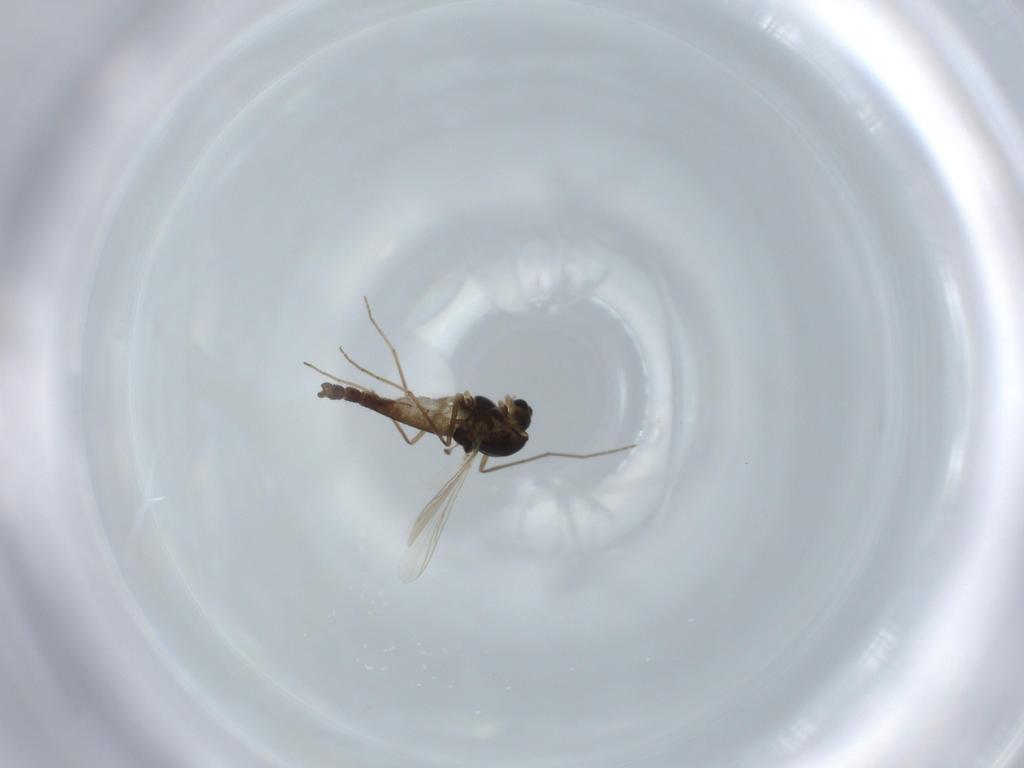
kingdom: Animalia
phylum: Arthropoda
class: Insecta
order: Diptera
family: Chironomidae
